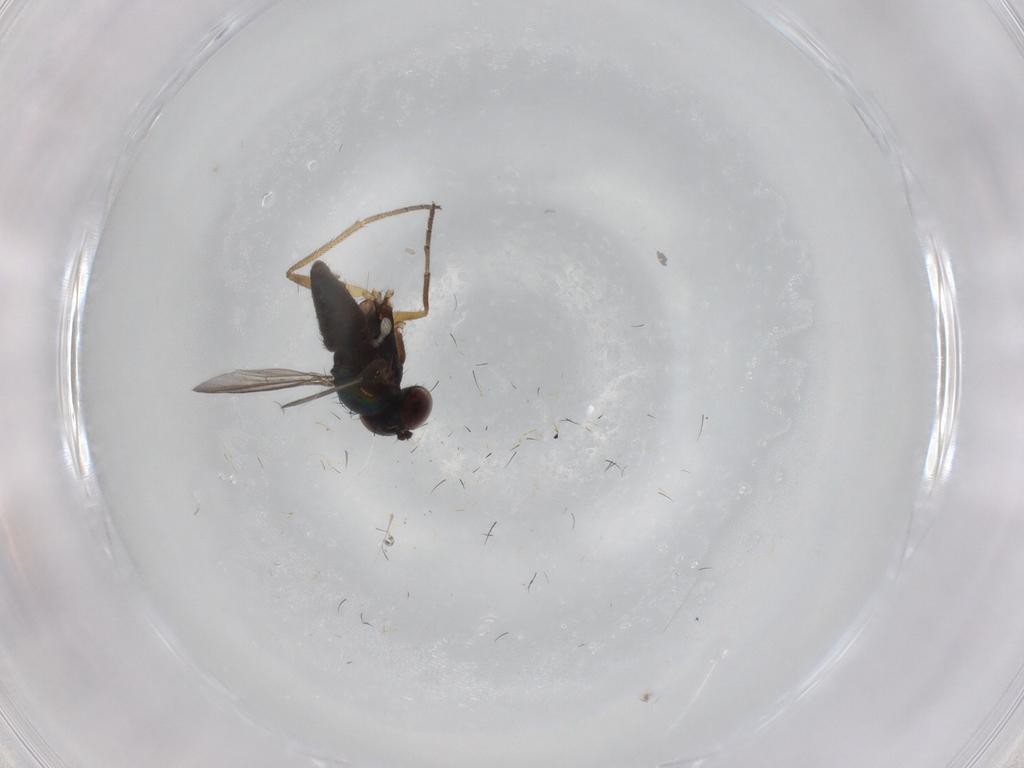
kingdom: Animalia
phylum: Arthropoda
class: Insecta
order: Diptera
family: Dolichopodidae
